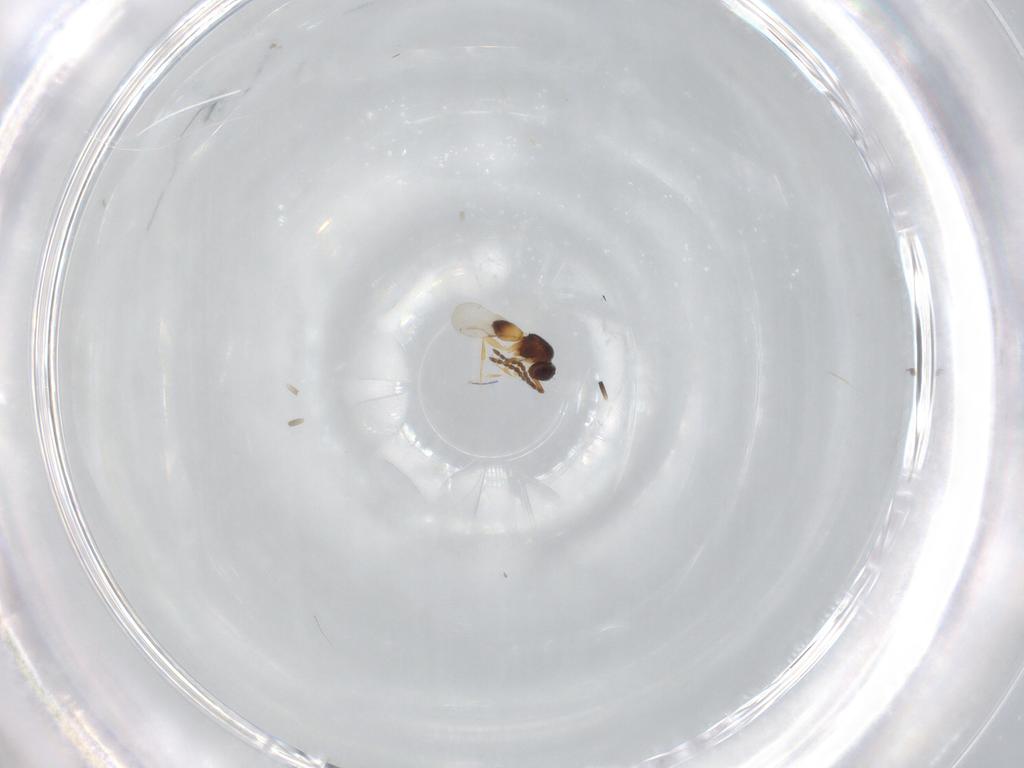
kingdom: Animalia
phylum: Arthropoda
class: Insecta
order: Hymenoptera
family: Ceraphronidae
